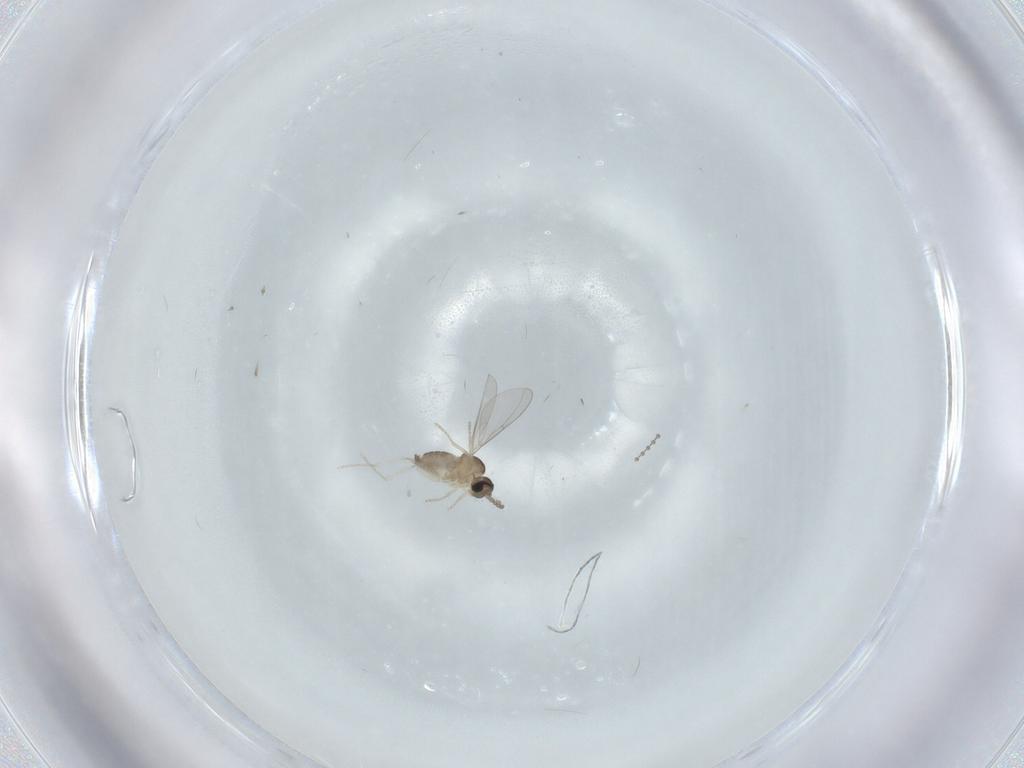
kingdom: Animalia
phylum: Arthropoda
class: Insecta
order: Diptera
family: Cecidomyiidae
